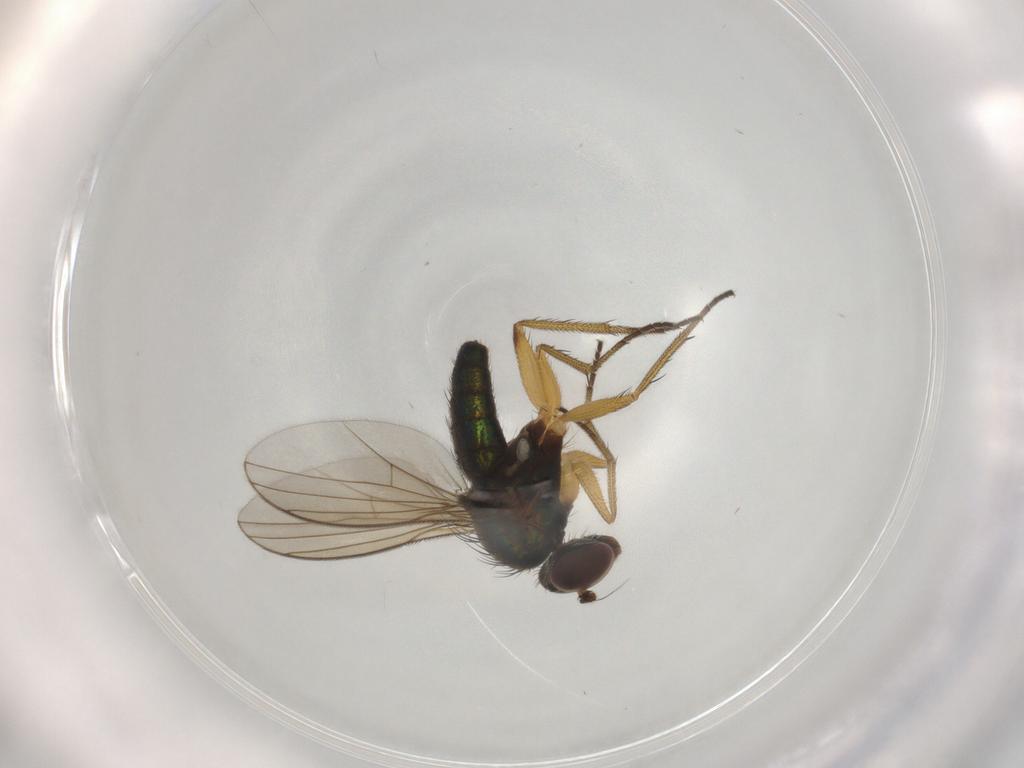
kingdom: Animalia
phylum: Arthropoda
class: Insecta
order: Diptera
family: Dolichopodidae
